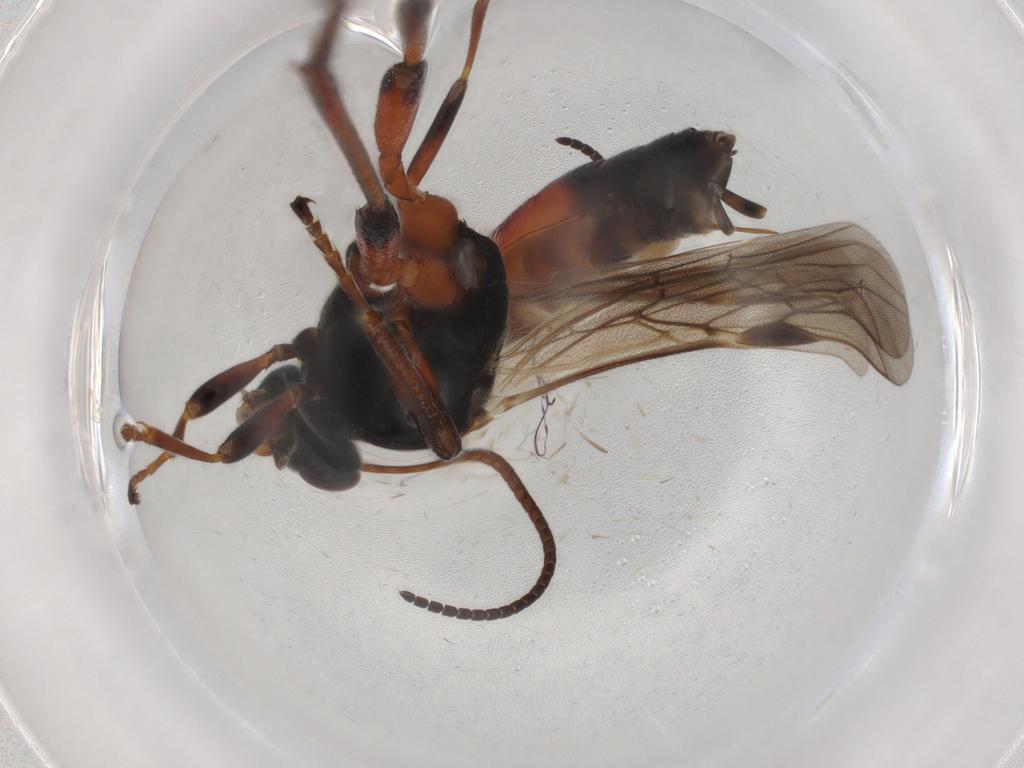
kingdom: Animalia
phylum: Arthropoda
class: Insecta
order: Hymenoptera
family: Braconidae
